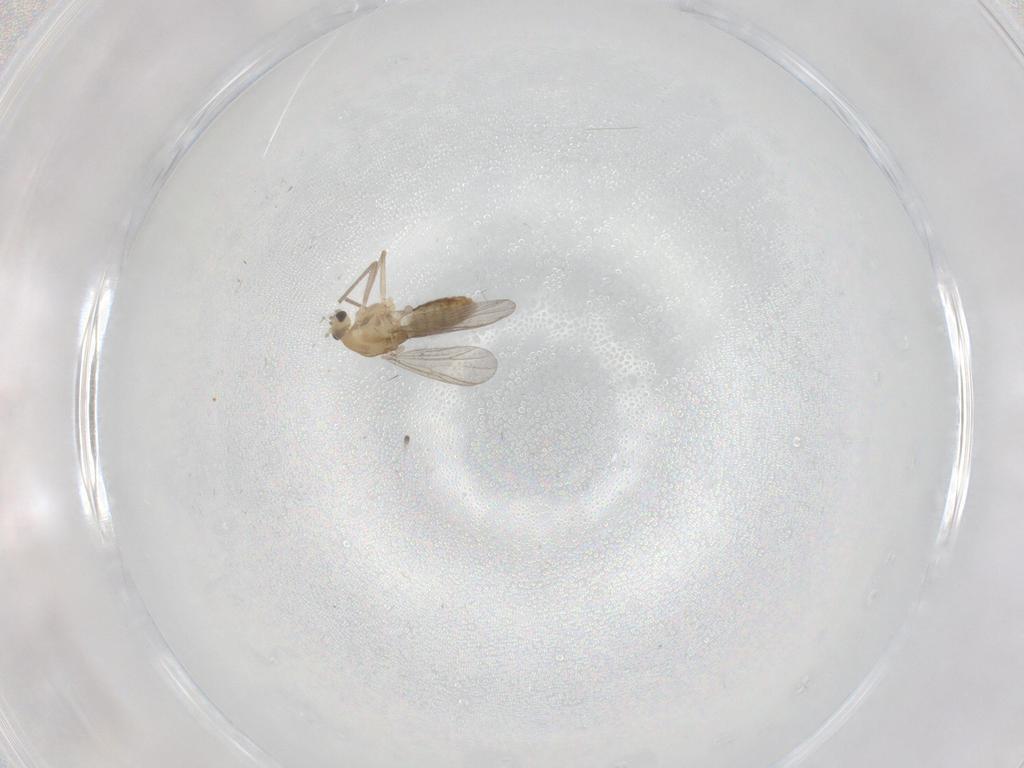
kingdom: Animalia
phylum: Arthropoda
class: Insecta
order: Diptera
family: Chironomidae
